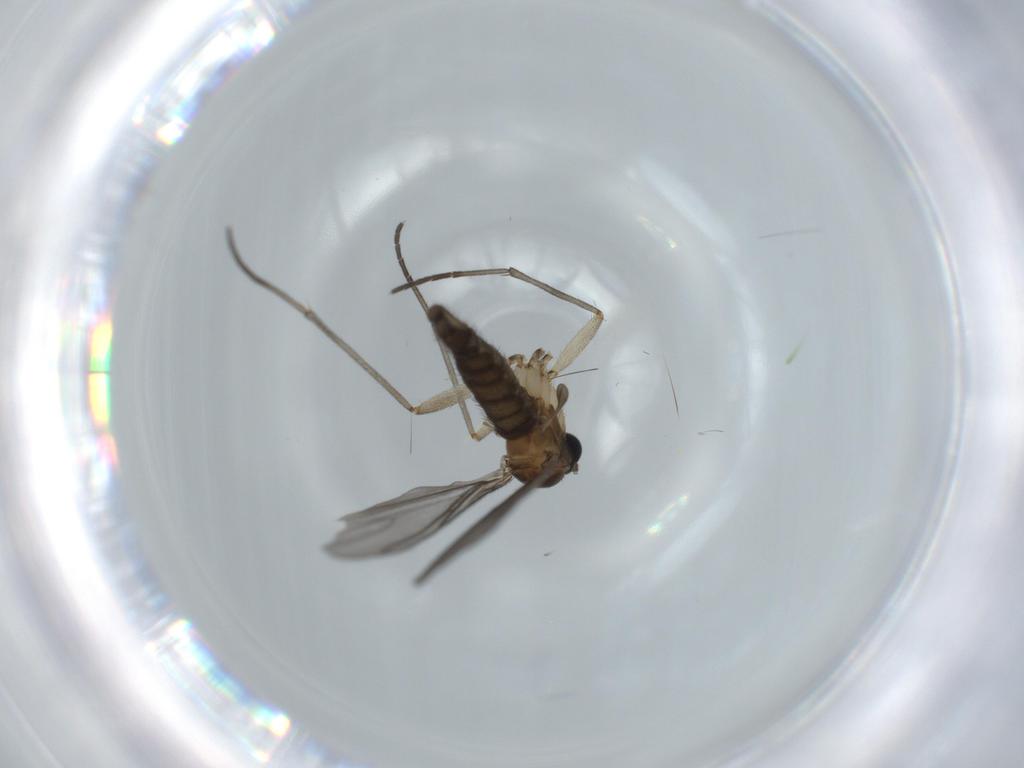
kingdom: Animalia
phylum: Arthropoda
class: Insecta
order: Diptera
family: Sciaridae
